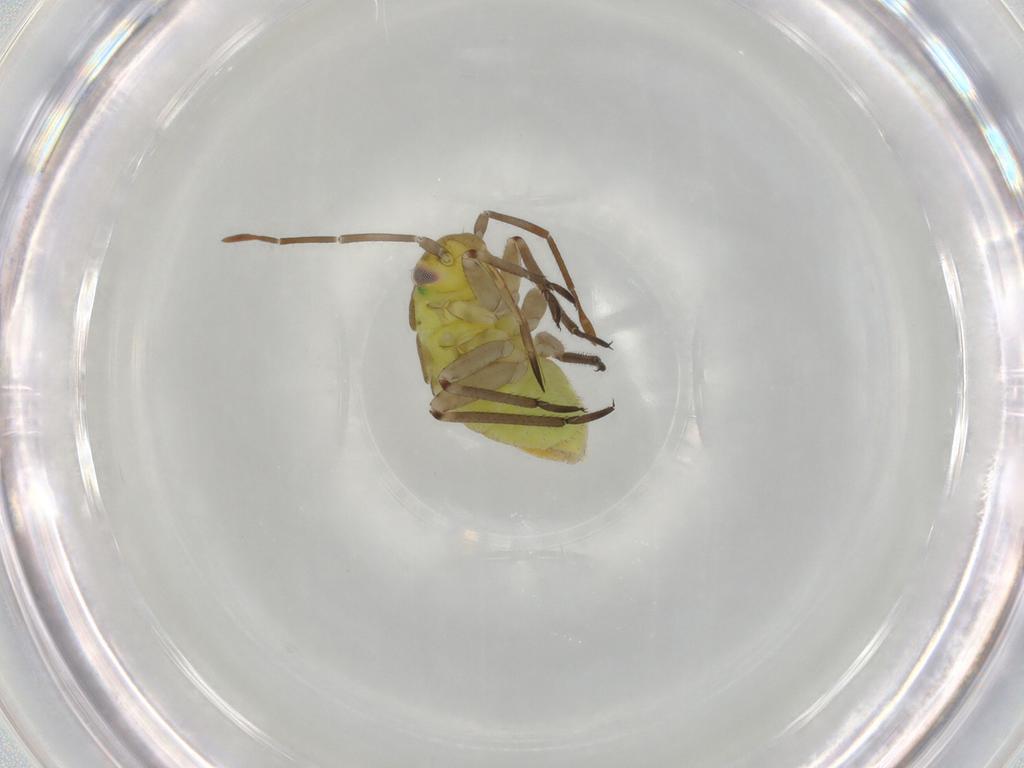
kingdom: Animalia
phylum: Arthropoda
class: Insecta
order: Hemiptera
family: Miridae
